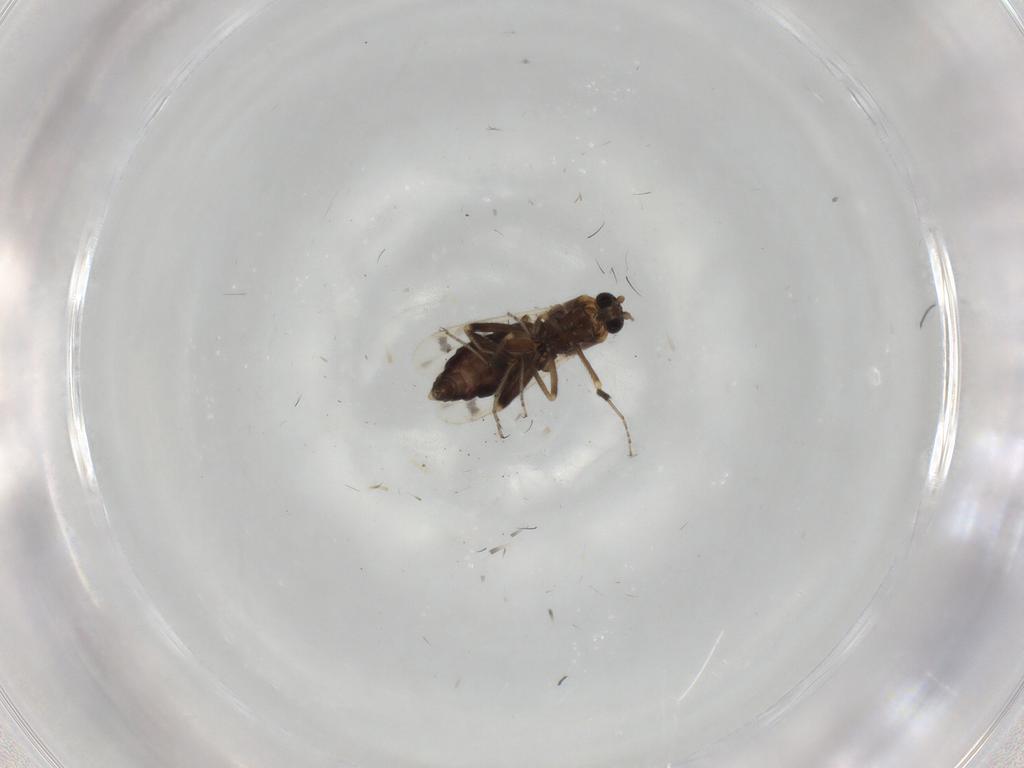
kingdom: Animalia
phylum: Arthropoda
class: Insecta
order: Diptera
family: Ceratopogonidae
